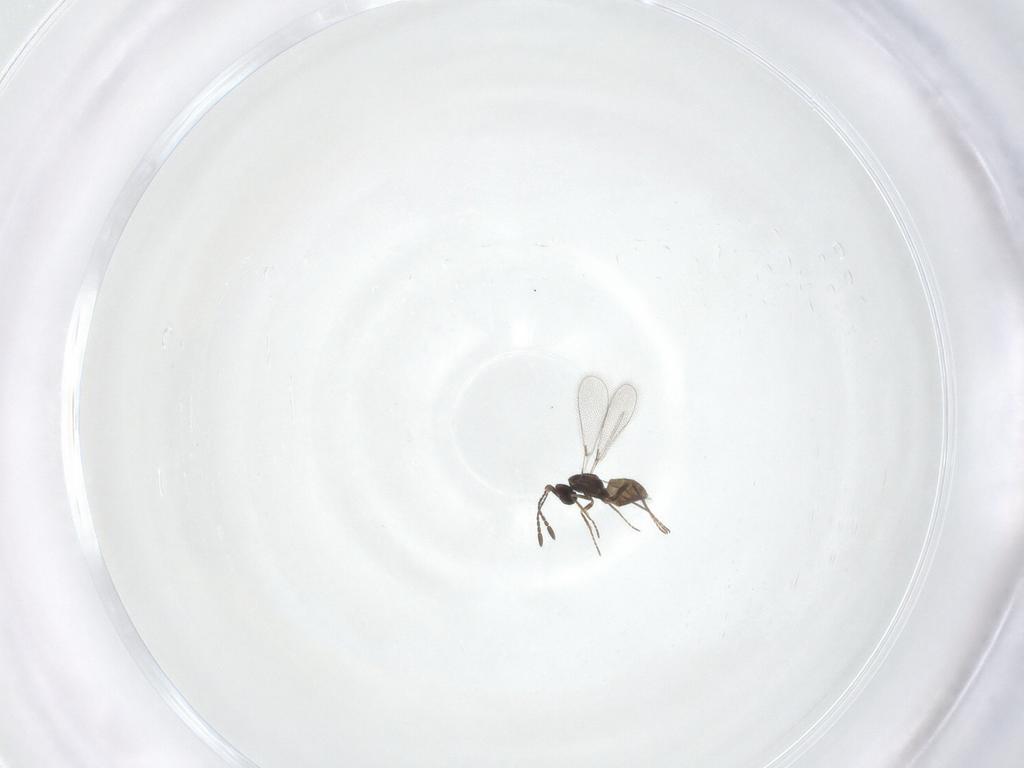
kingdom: Animalia
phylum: Arthropoda
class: Insecta
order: Hymenoptera
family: Mymaridae
